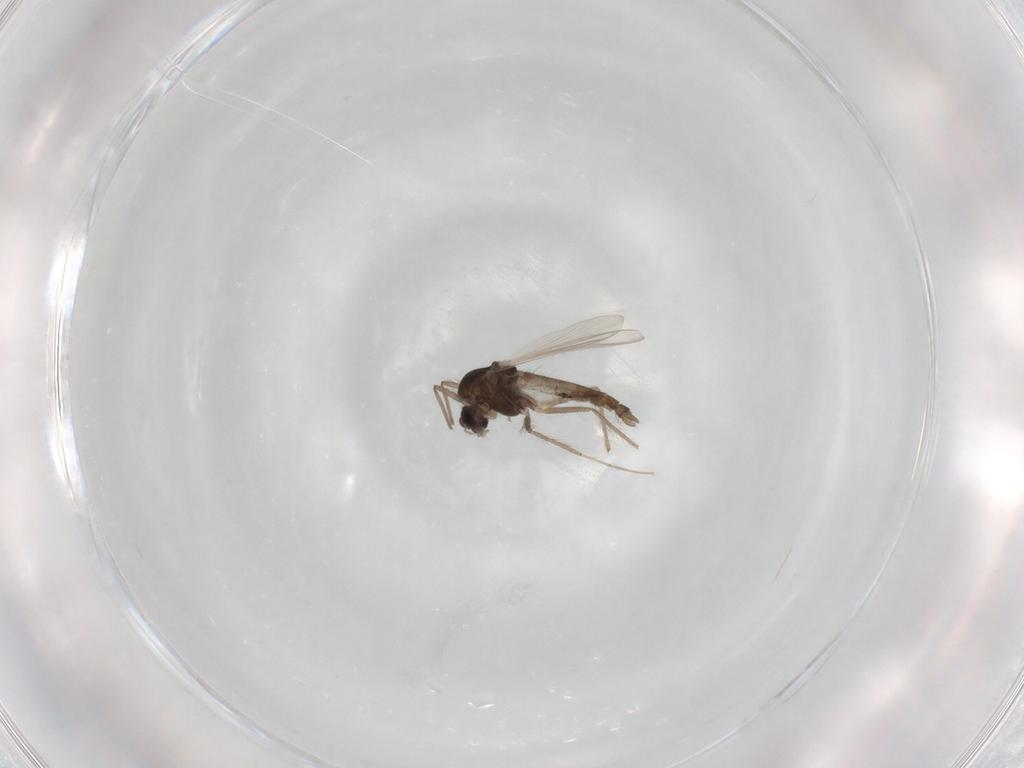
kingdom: Animalia
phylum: Arthropoda
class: Insecta
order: Diptera
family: Chironomidae
